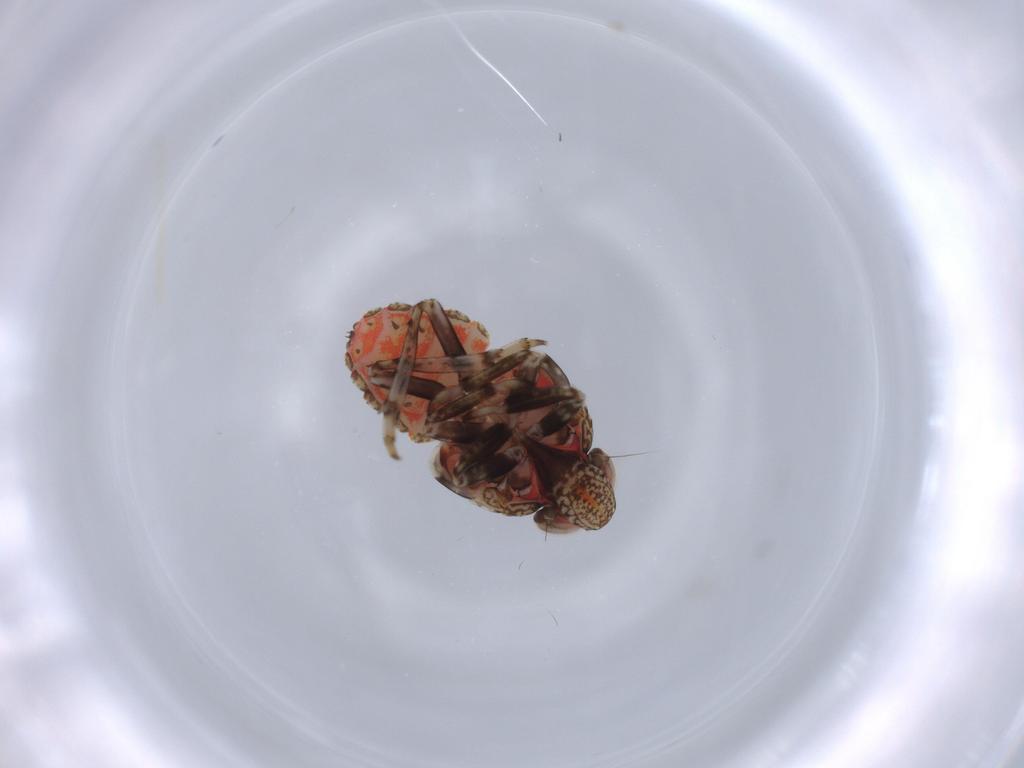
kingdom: Animalia
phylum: Arthropoda
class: Insecta
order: Hemiptera
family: Issidae
